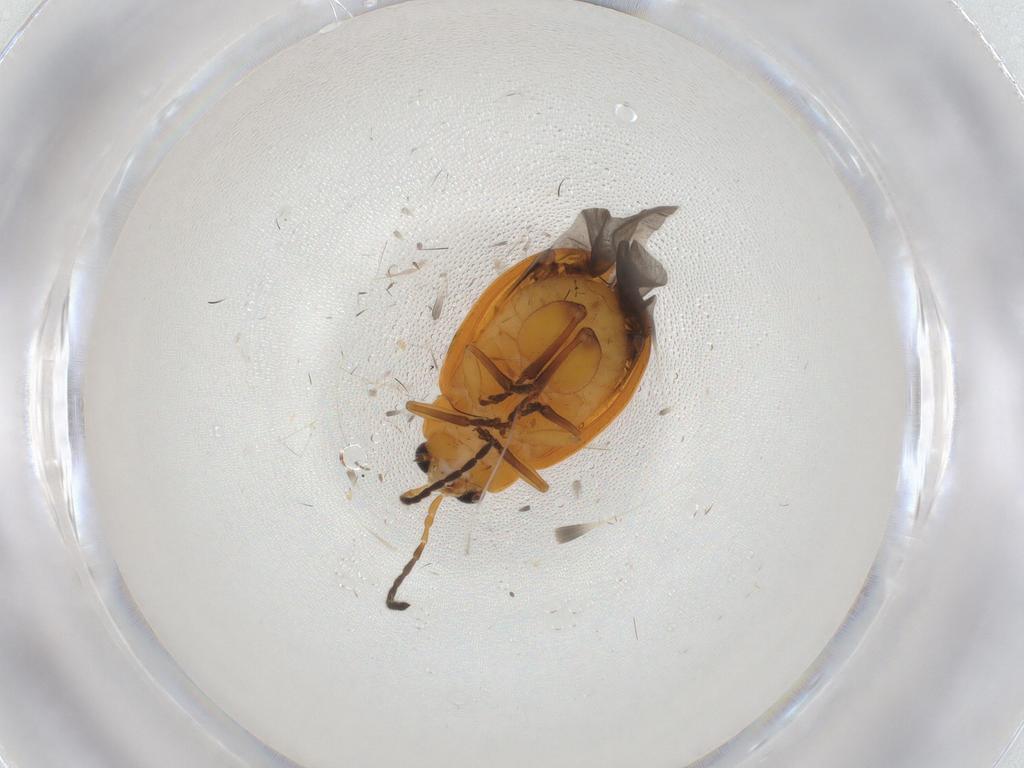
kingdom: Animalia
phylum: Arthropoda
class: Insecta
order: Coleoptera
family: Chrysomelidae
